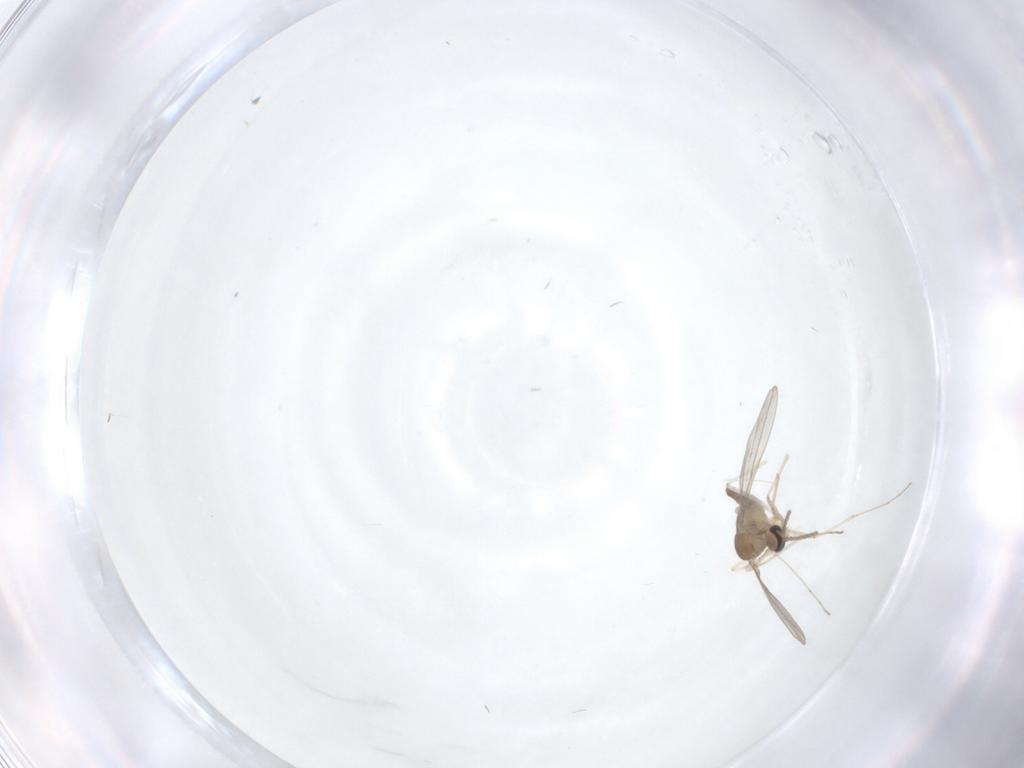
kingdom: Animalia
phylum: Arthropoda
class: Insecta
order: Diptera
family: Cecidomyiidae
